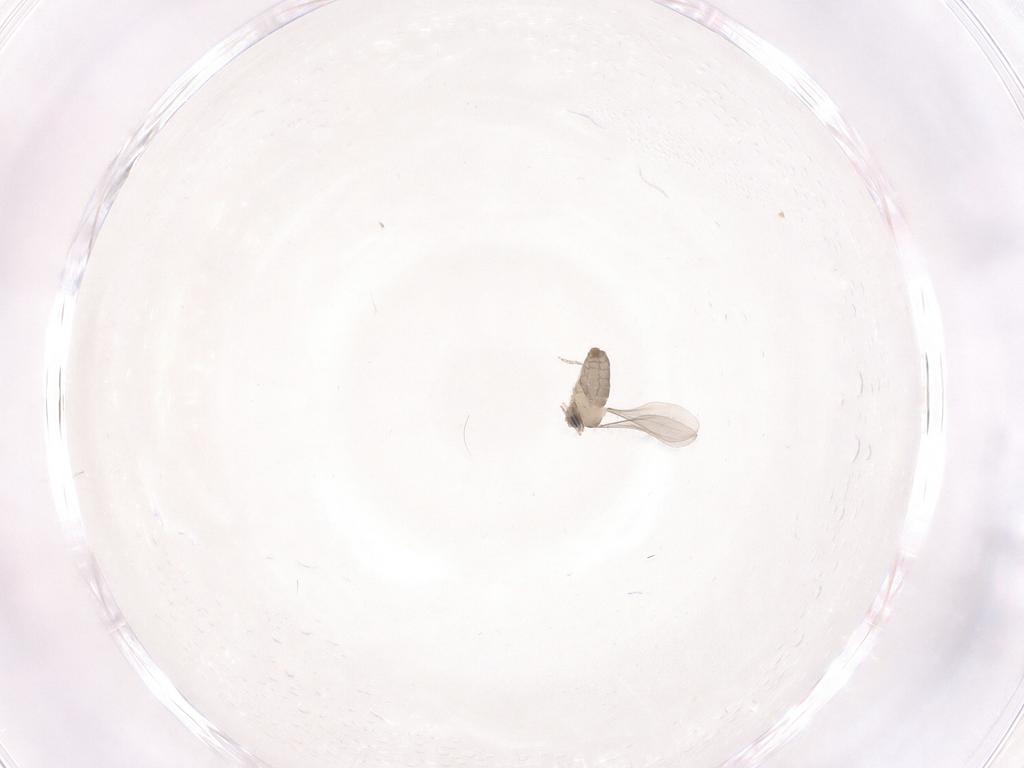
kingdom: Animalia
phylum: Arthropoda
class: Insecta
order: Diptera
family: Cecidomyiidae
